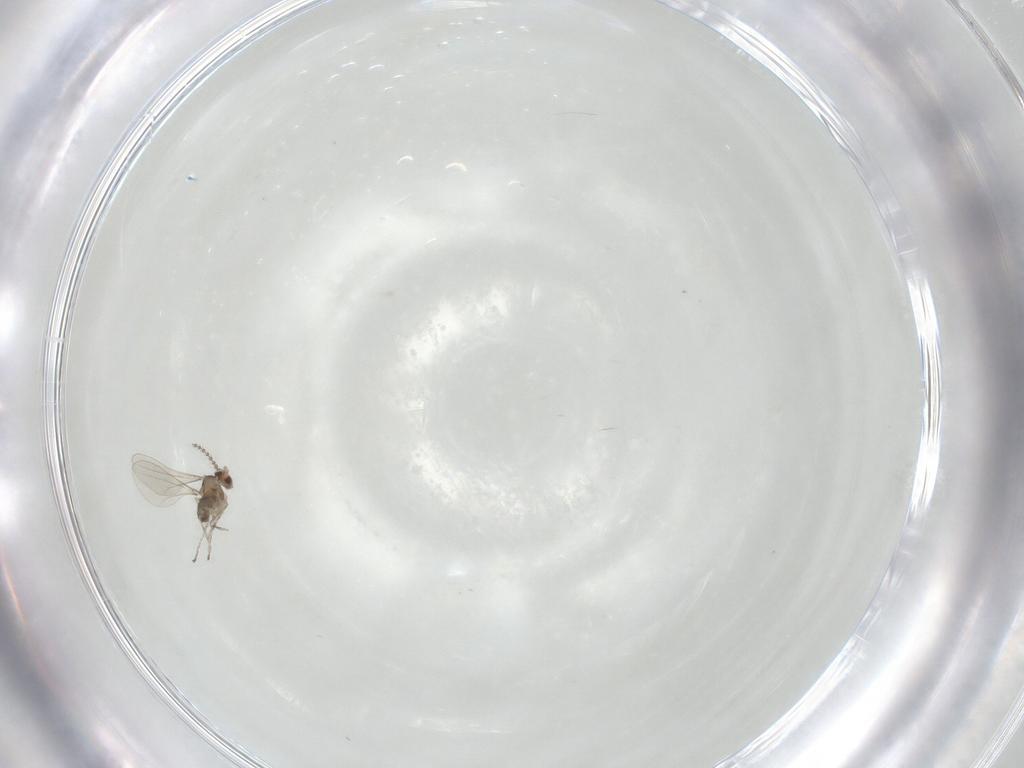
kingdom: Animalia
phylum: Arthropoda
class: Insecta
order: Diptera
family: Cecidomyiidae
